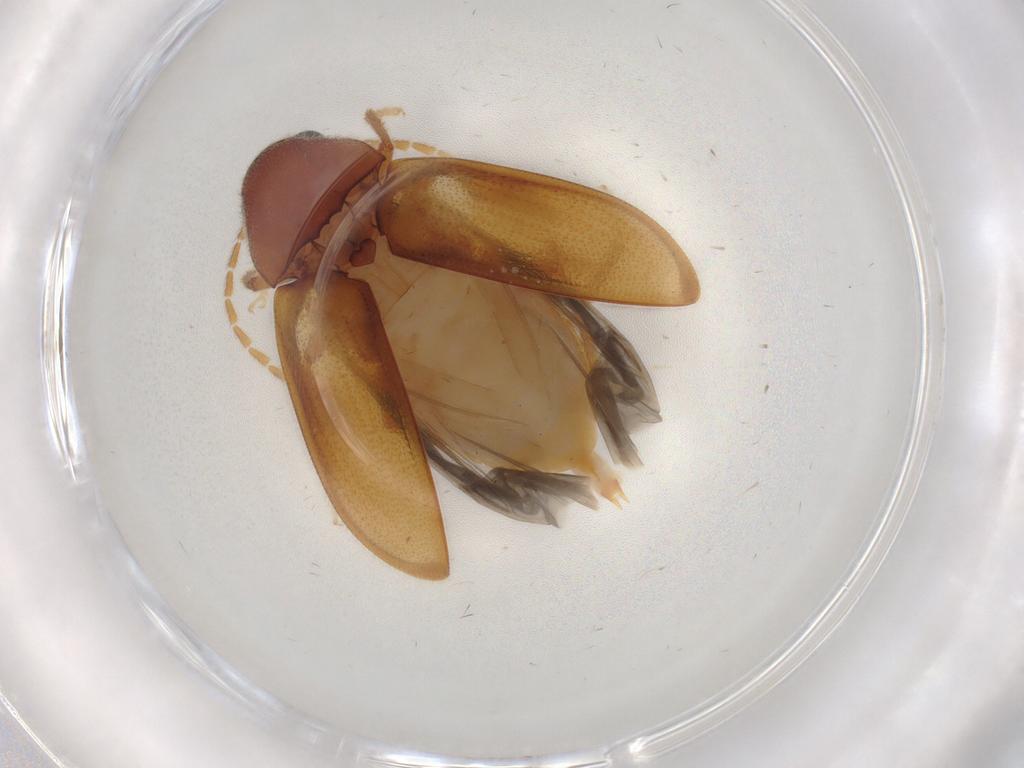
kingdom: Animalia
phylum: Arthropoda
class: Insecta
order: Coleoptera
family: Ptilodactylidae
